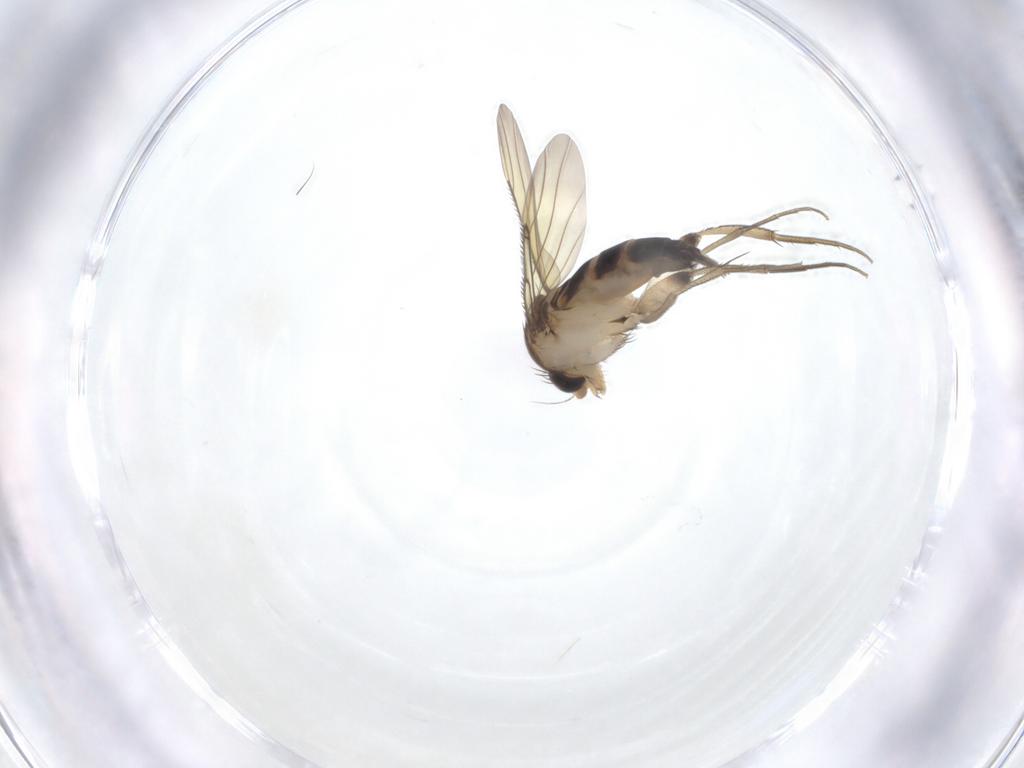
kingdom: Animalia
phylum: Arthropoda
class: Insecta
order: Diptera
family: Phoridae
